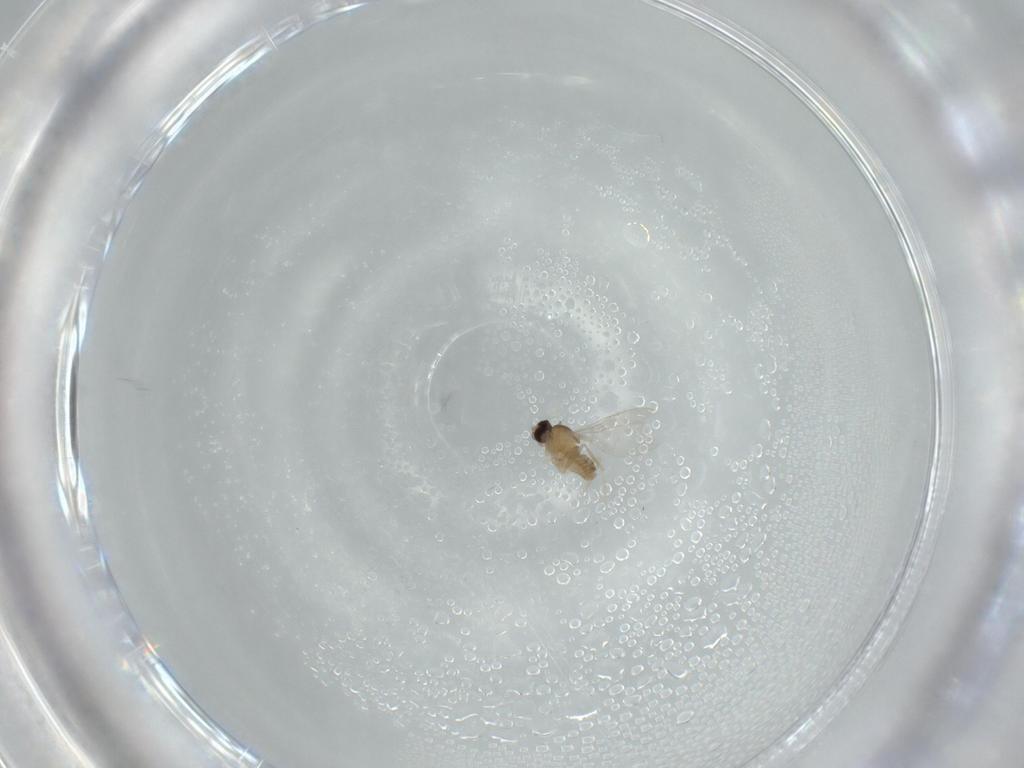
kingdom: Animalia
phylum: Arthropoda
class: Insecta
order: Diptera
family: Cecidomyiidae
